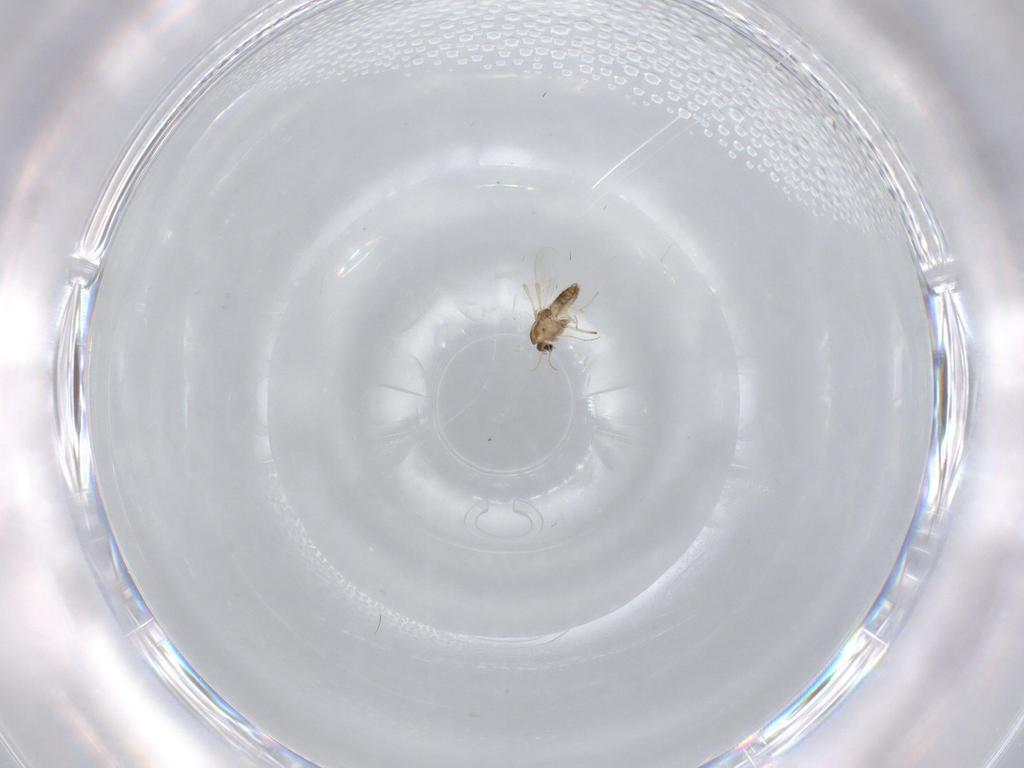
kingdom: Animalia
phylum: Arthropoda
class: Insecta
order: Diptera
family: Chironomidae
